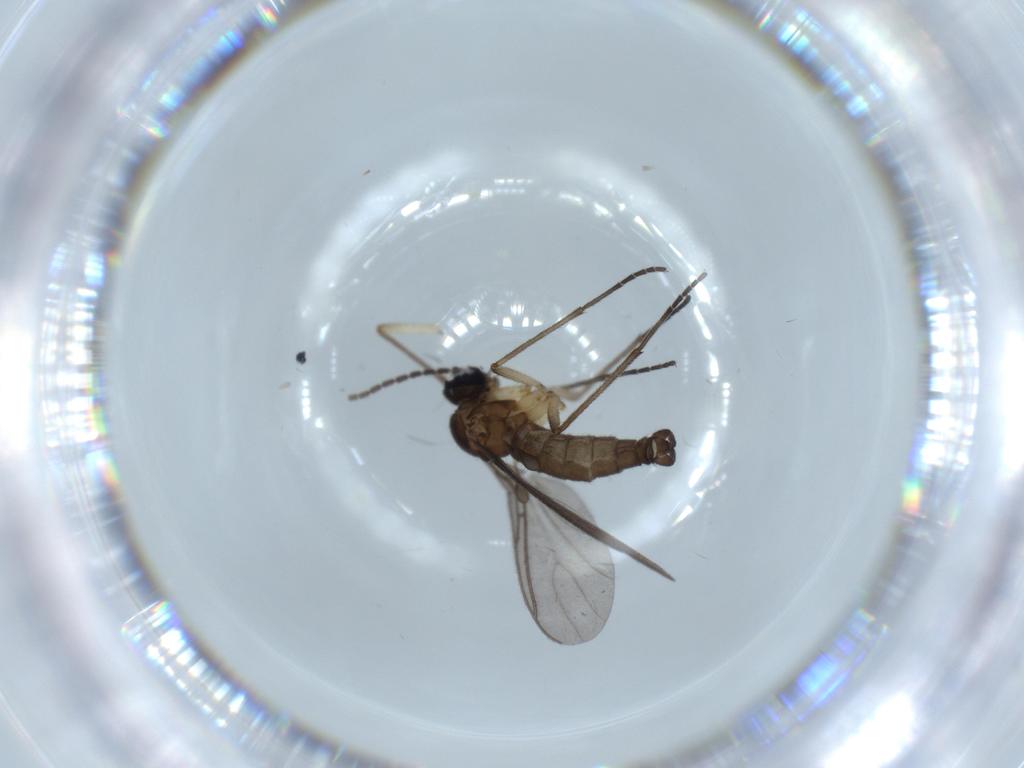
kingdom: Animalia
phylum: Arthropoda
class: Insecta
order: Diptera
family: Sciaridae
